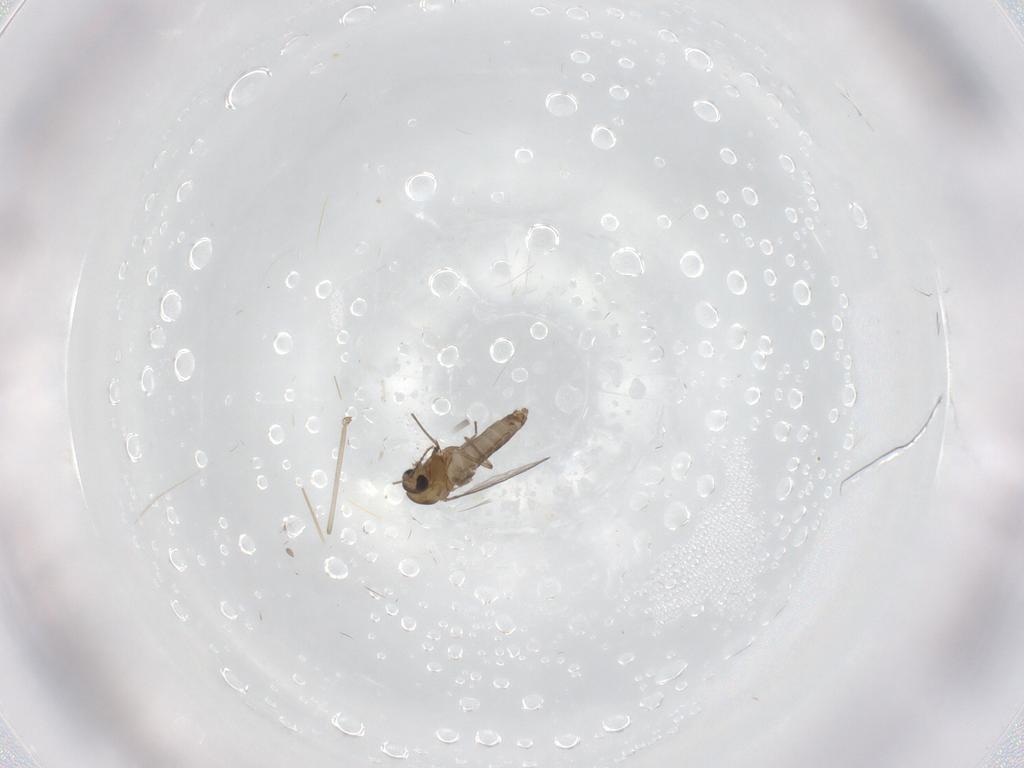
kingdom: Animalia
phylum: Arthropoda
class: Insecta
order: Diptera
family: Chironomidae
